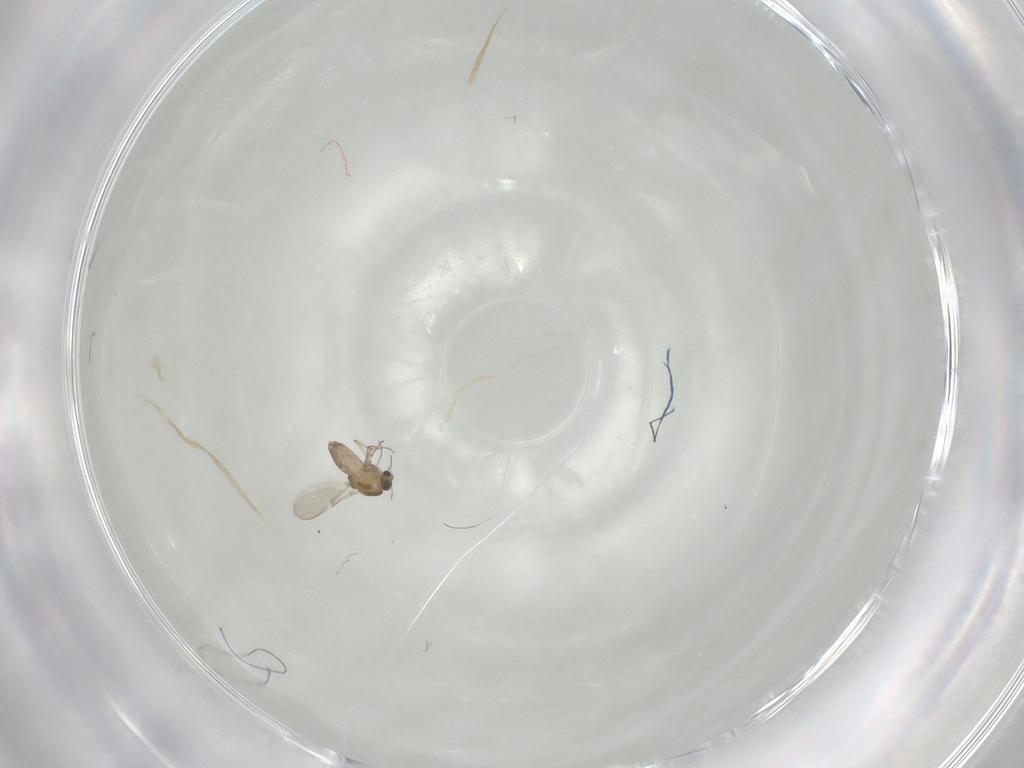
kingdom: Animalia
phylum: Arthropoda
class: Insecta
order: Diptera
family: Chironomidae
